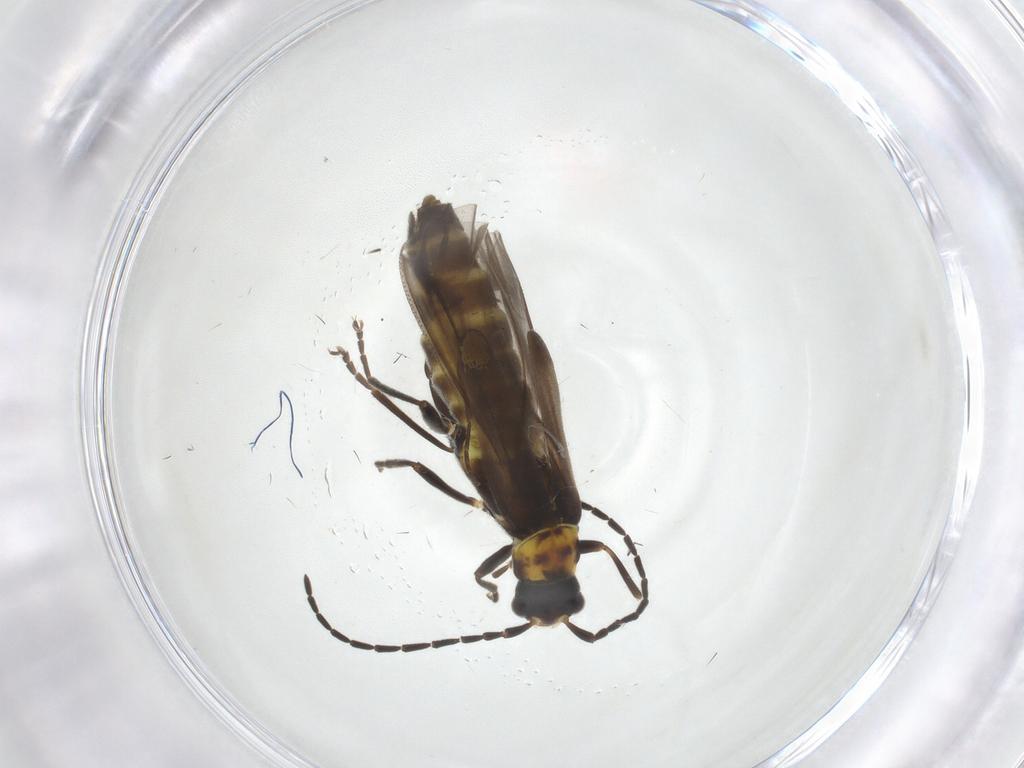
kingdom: Animalia
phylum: Arthropoda
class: Insecta
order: Coleoptera
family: Cantharidae
